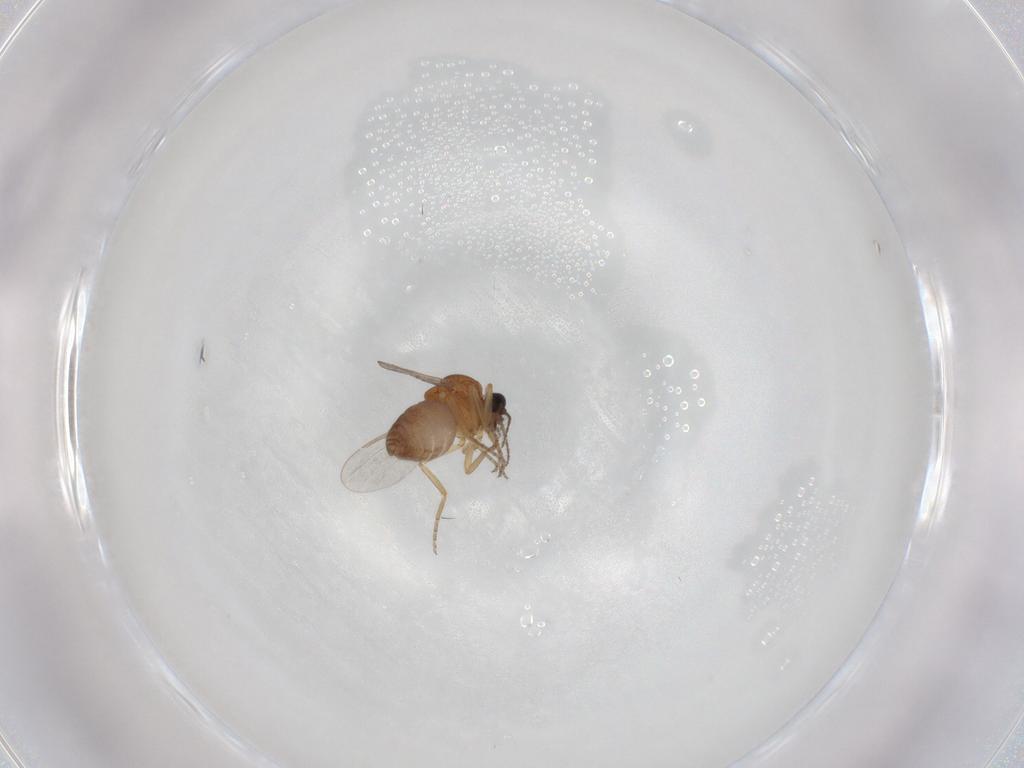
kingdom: Animalia
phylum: Arthropoda
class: Insecta
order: Diptera
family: Ceratopogonidae
